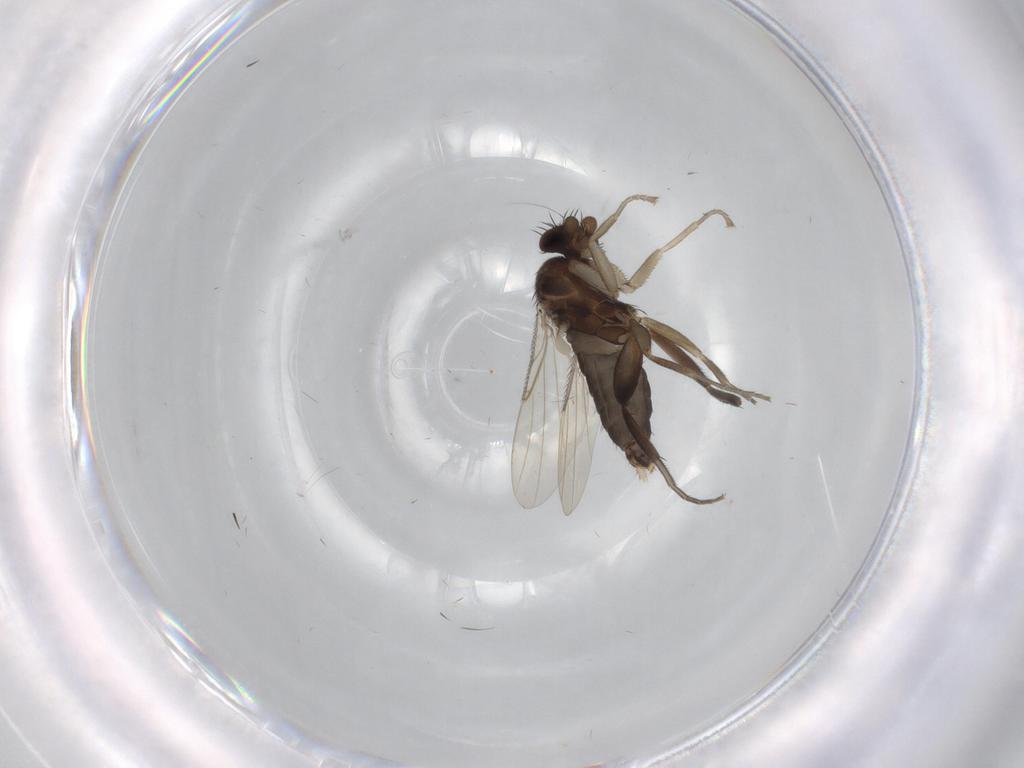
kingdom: Animalia
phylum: Arthropoda
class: Insecta
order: Diptera
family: Phoridae
